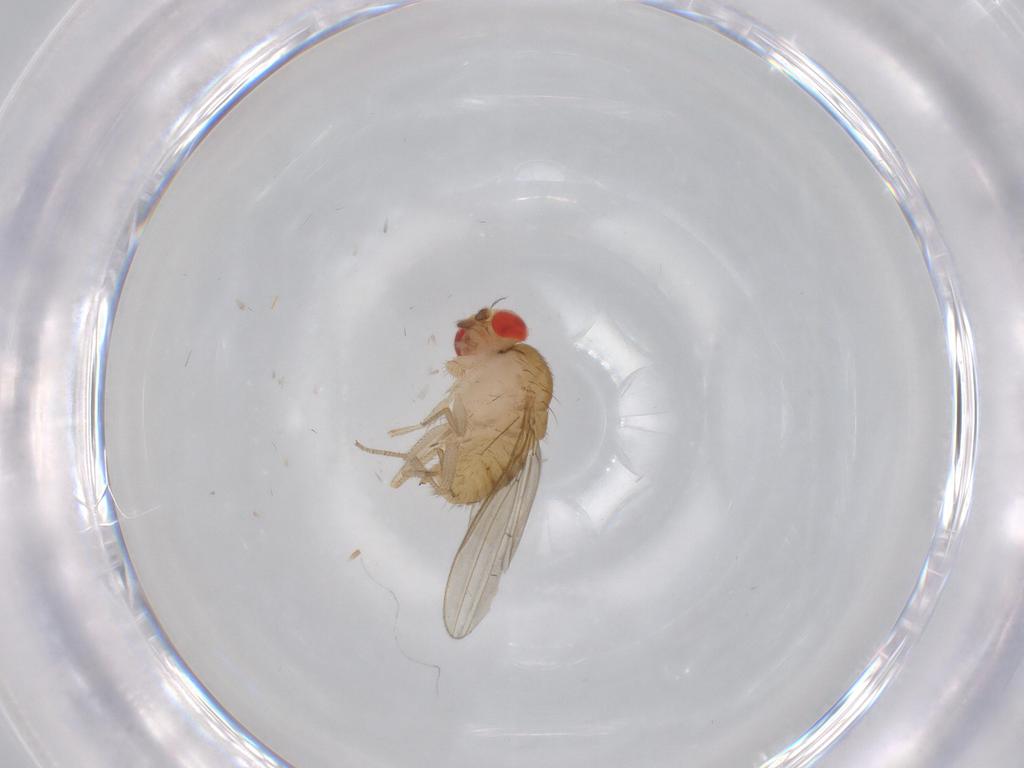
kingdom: Animalia
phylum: Arthropoda
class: Insecta
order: Diptera
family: Drosophilidae
